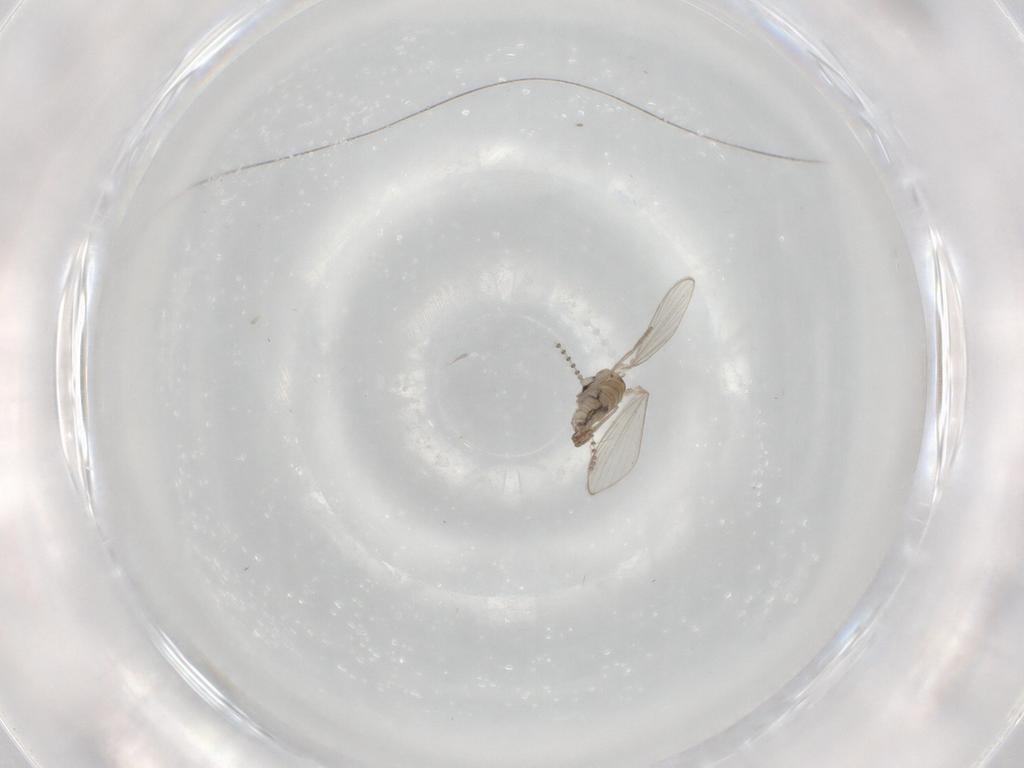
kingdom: Animalia
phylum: Arthropoda
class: Insecta
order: Diptera
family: Psychodidae
